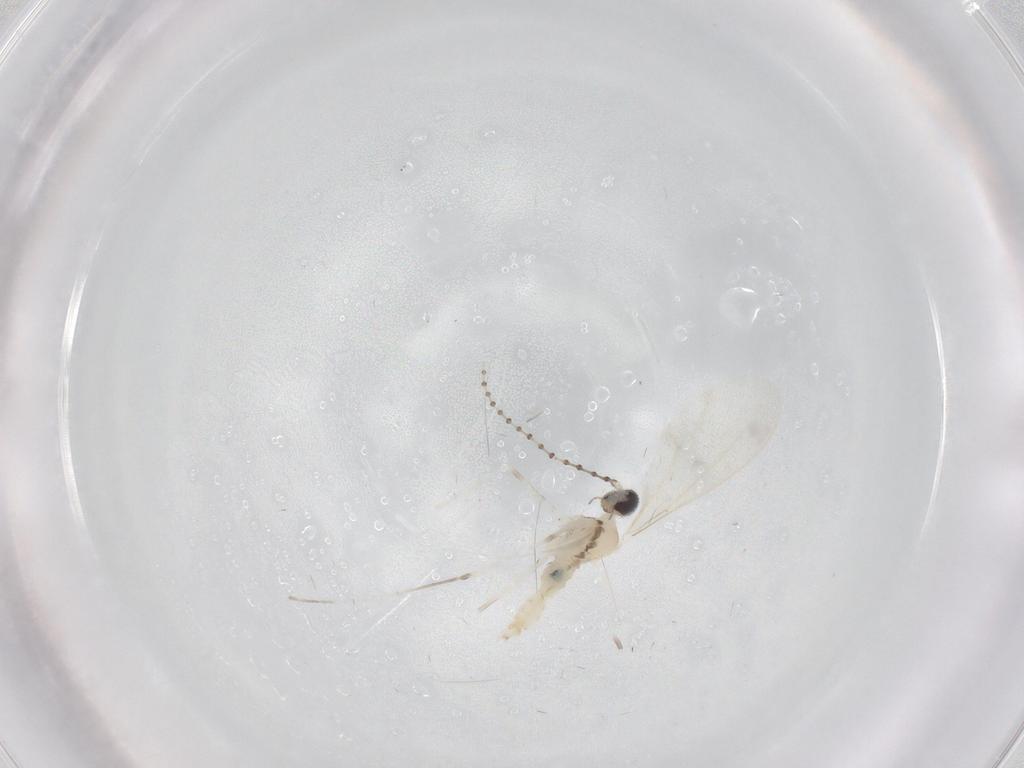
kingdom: Animalia
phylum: Arthropoda
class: Insecta
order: Diptera
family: Cecidomyiidae
